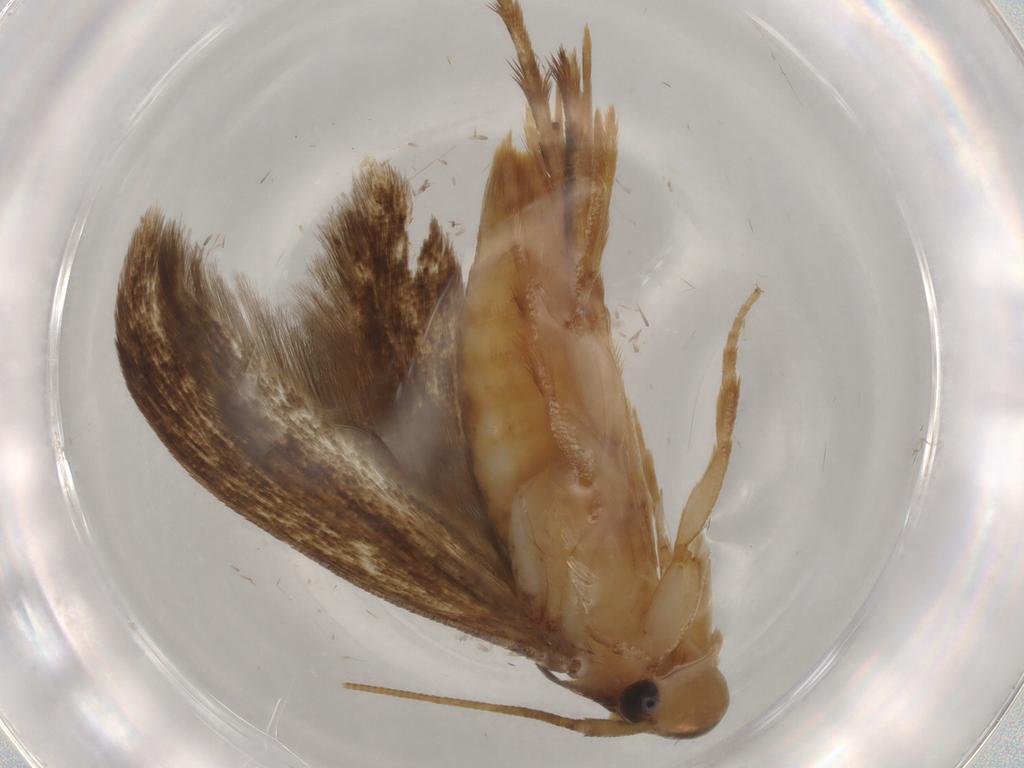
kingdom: Animalia
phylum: Arthropoda
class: Insecta
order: Lepidoptera
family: Tineidae
